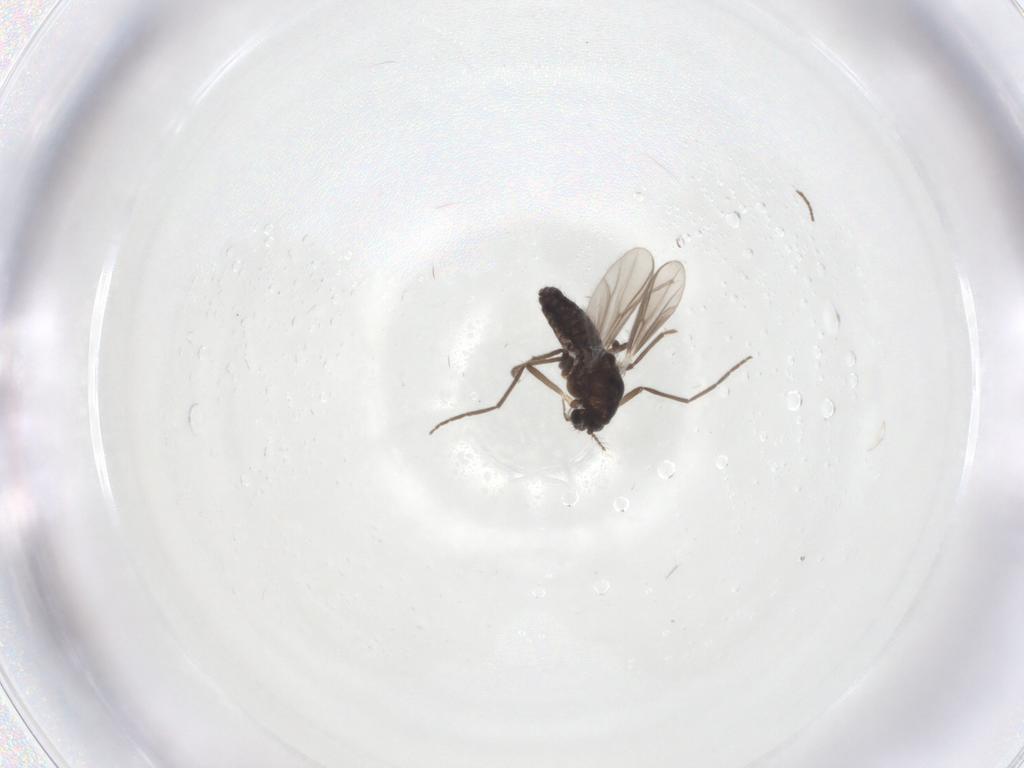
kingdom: Animalia
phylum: Arthropoda
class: Insecta
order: Diptera
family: Chironomidae
